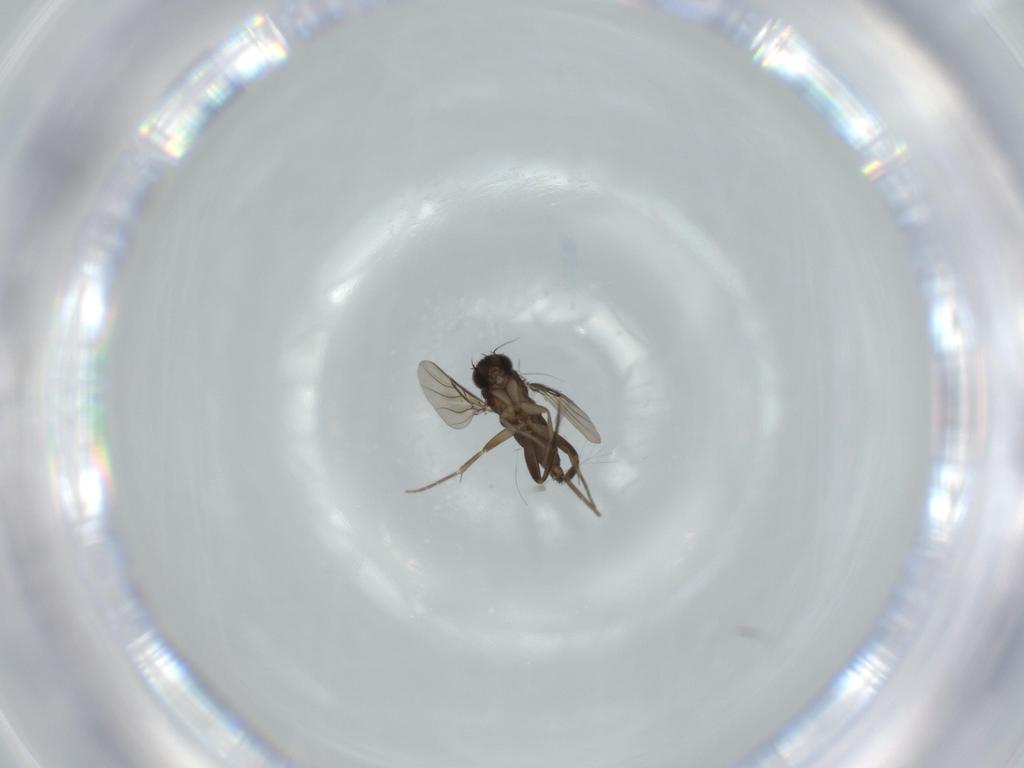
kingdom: Animalia
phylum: Arthropoda
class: Insecta
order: Diptera
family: Phoridae
